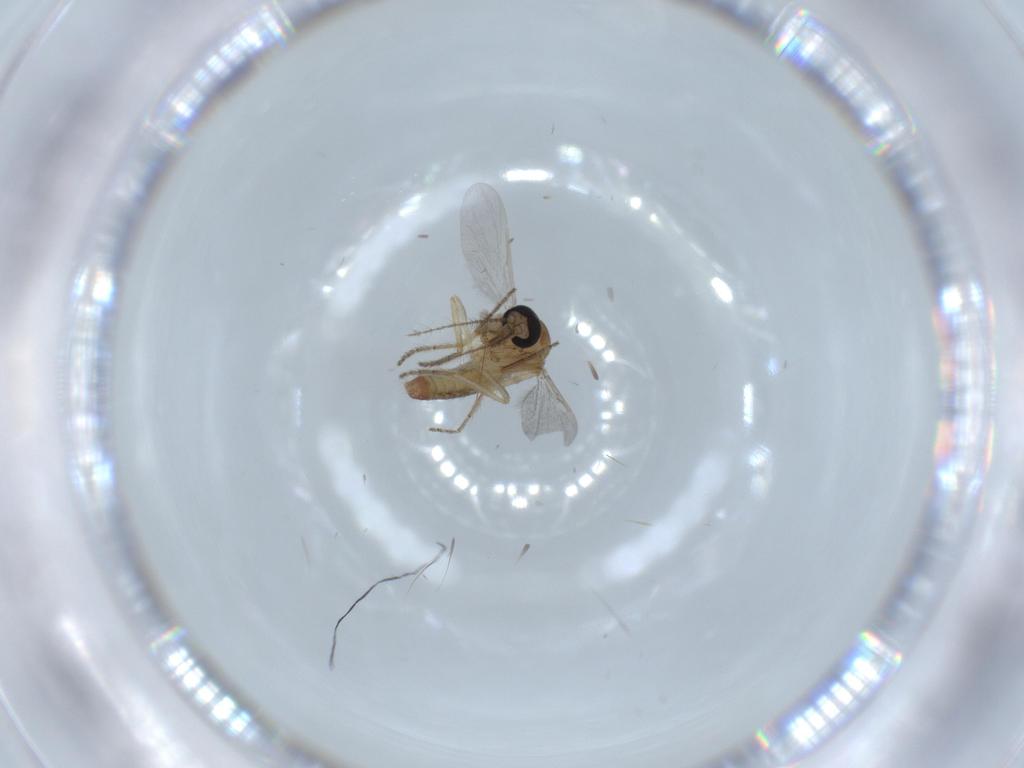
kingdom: Animalia
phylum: Arthropoda
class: Insecta
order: Diptera
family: Ceratopogonidae
